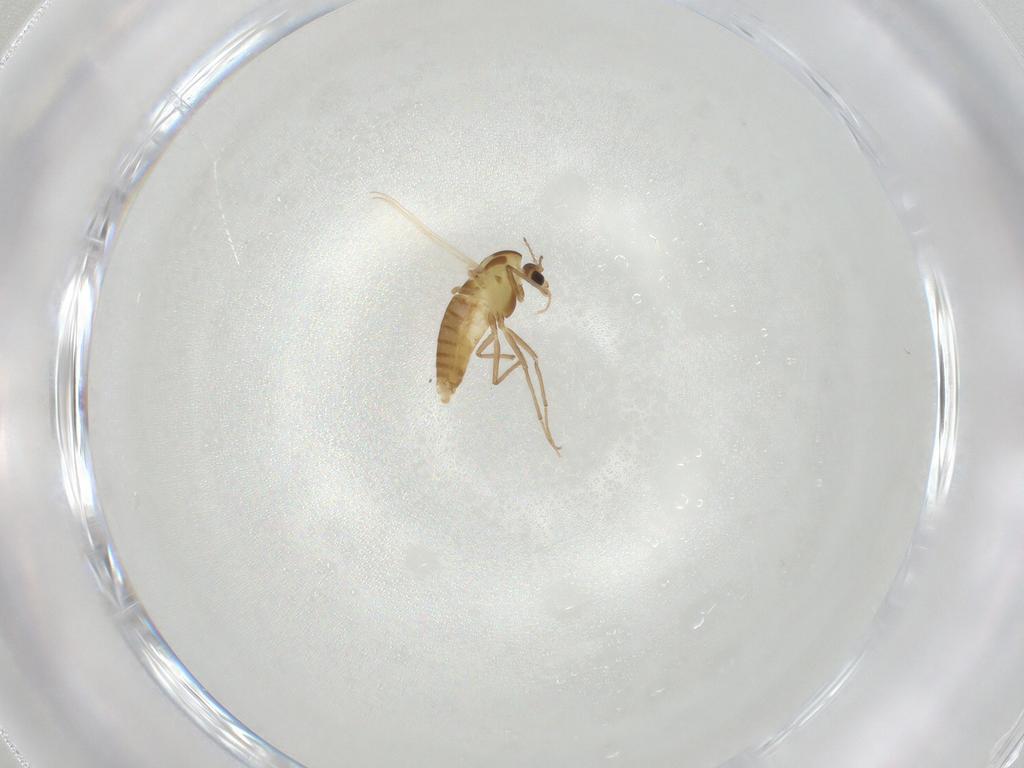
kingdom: Animalia
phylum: Arthropoda
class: Insecta
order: Diptera
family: Chironomidae
